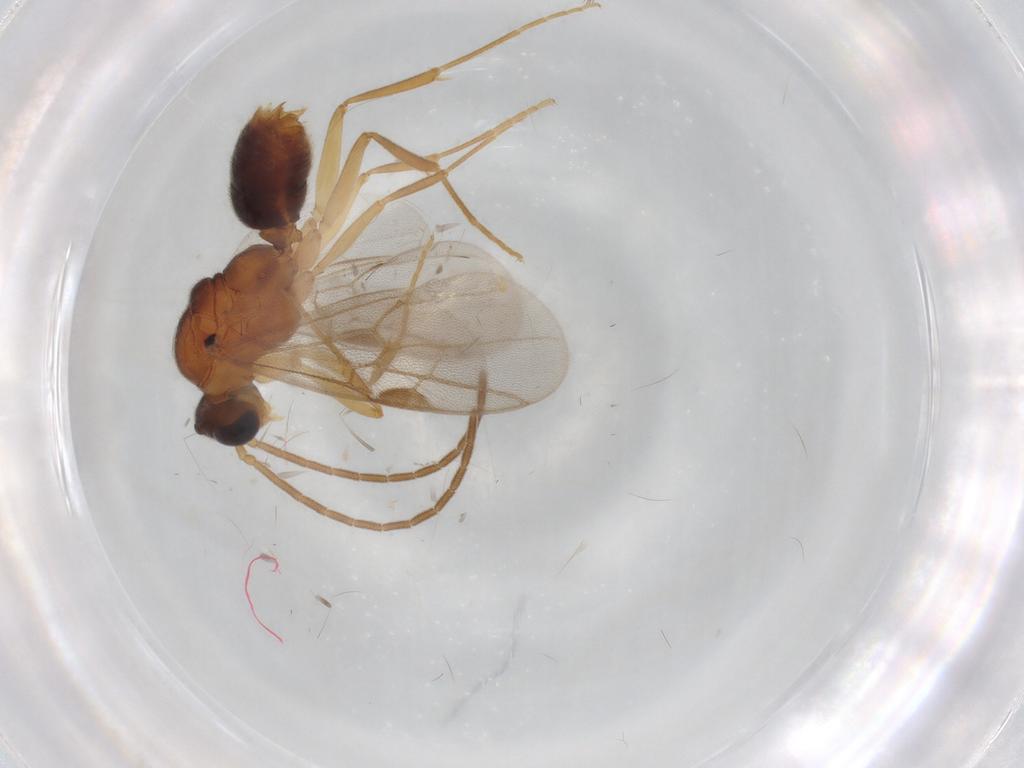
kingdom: Animalia
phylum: Arthropoda
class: Insecta
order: Hymenoptera
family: Formicidae
